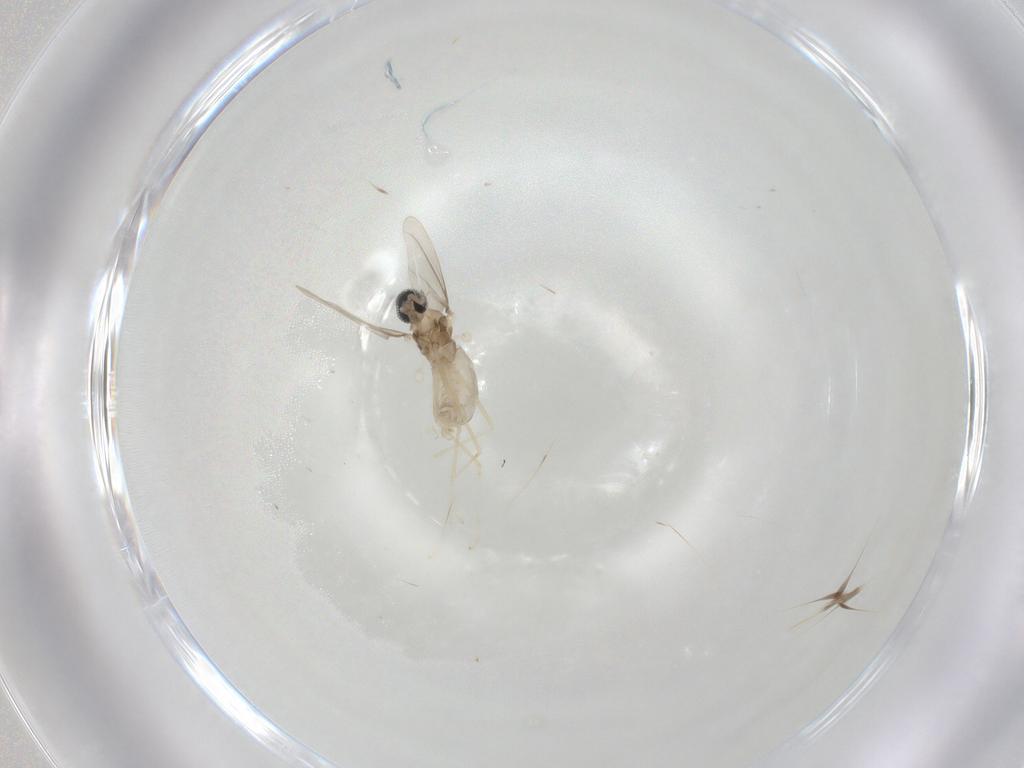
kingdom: Animalia
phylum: Arthropoda
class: Insecta
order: Diptera
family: Cecidomyiidae
